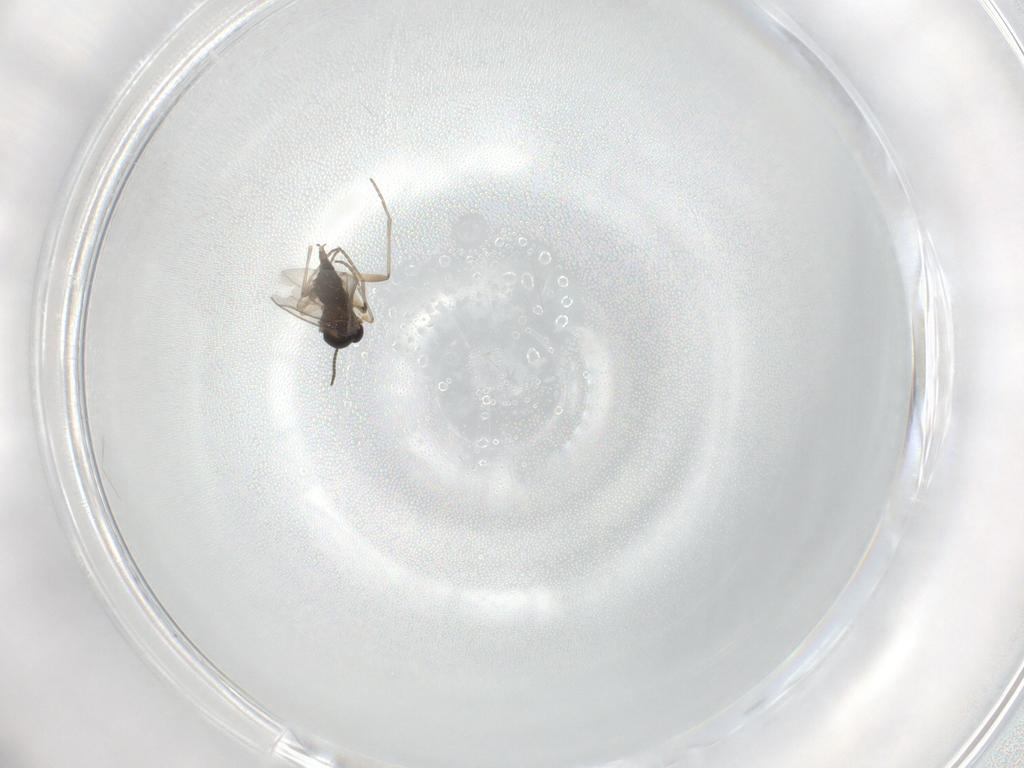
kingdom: Animalia
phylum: Arthropoda
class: Insecta
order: Diptera
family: Sciaridae
